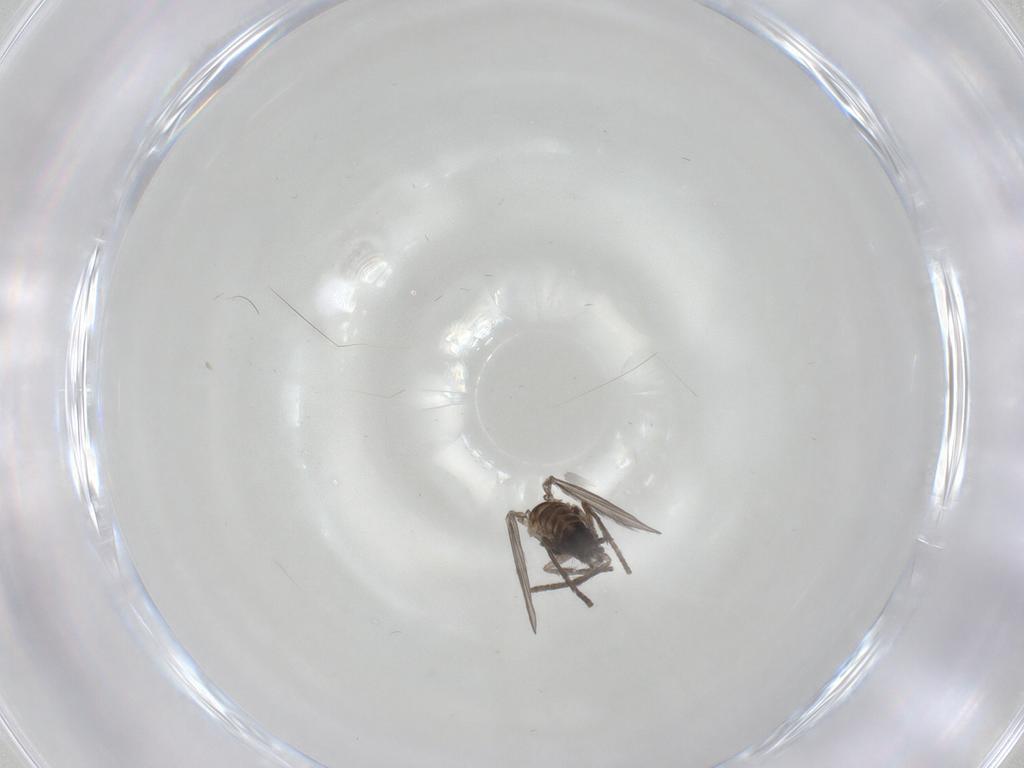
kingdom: Animalia
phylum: Arthropoda
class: Insecta
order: Diptera
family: Psychodidae
